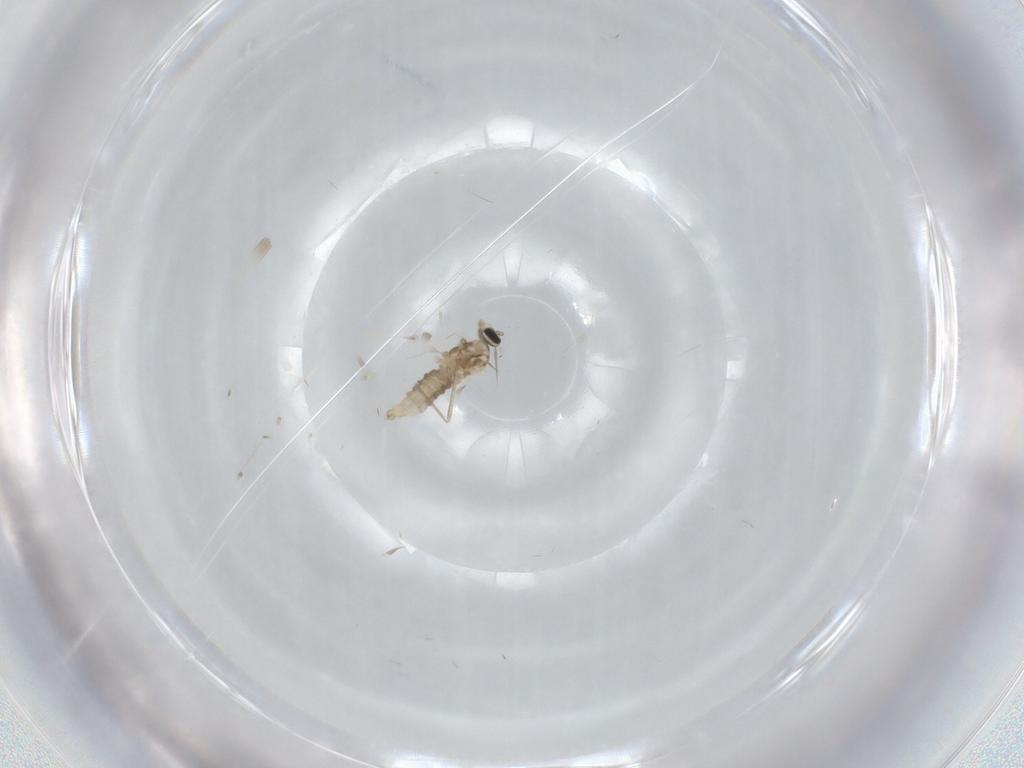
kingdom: Animalia
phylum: Arthropoda
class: Insecta
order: Diptera
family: Cecidomyiidae
